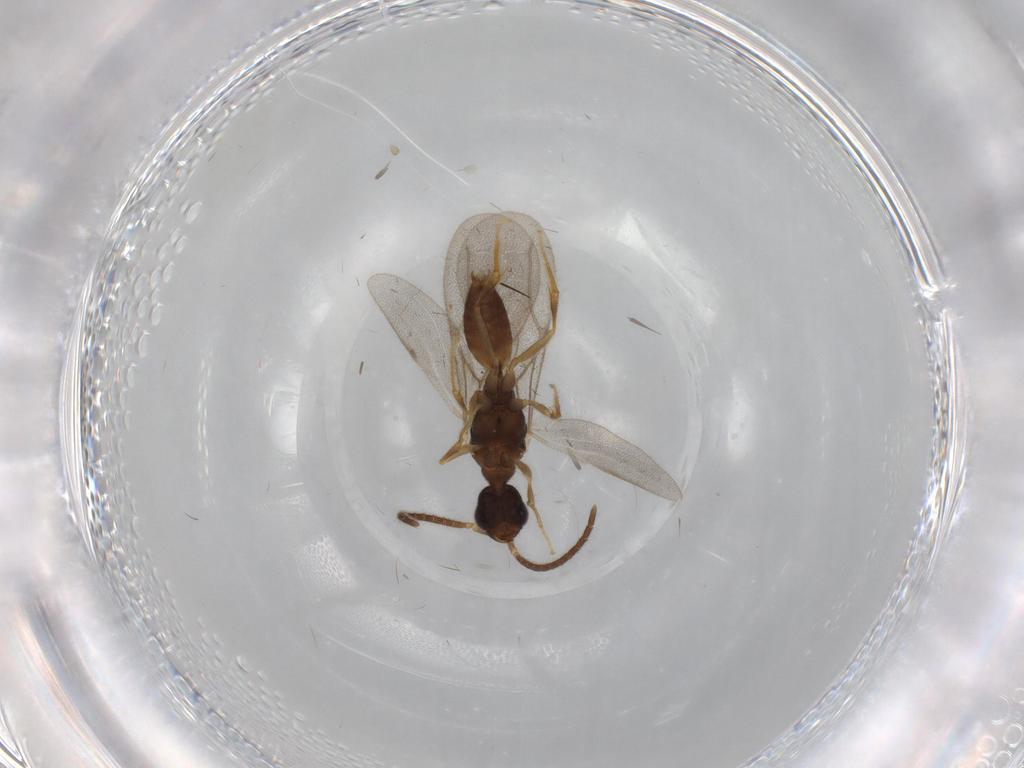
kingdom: Animalia
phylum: Arthropoda
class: Insecta
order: Hymenoptera
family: Bethylidae
